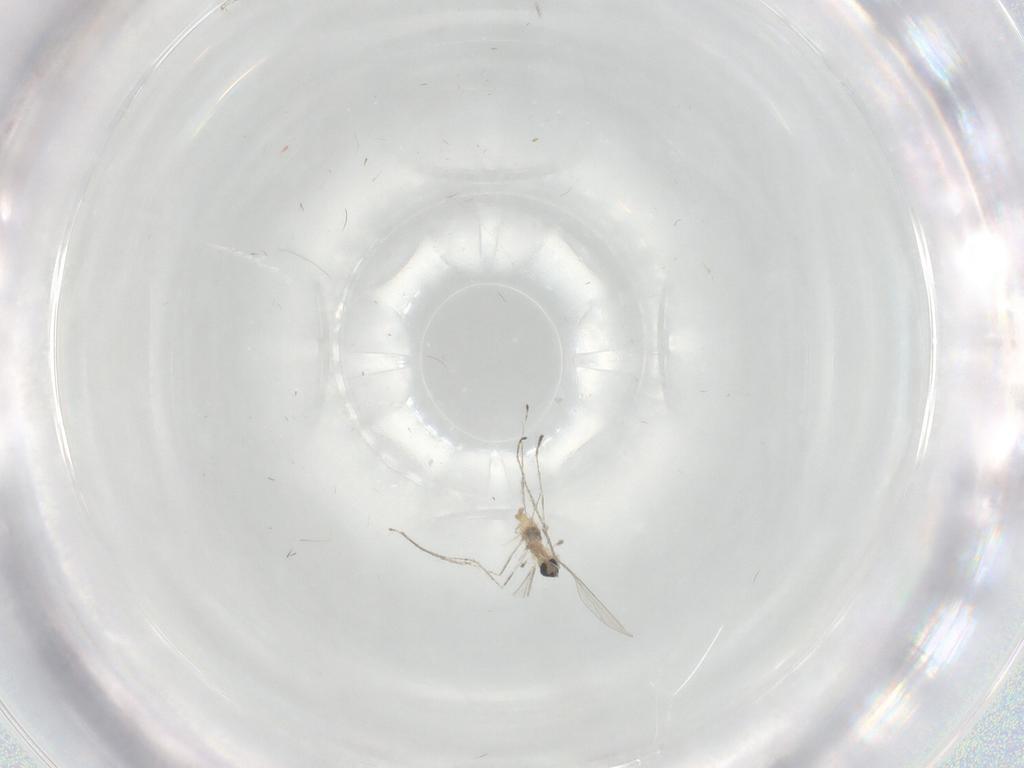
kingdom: Animalia
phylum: Arthropoda
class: Insecta
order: Diptera
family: Cecidomyiidae
